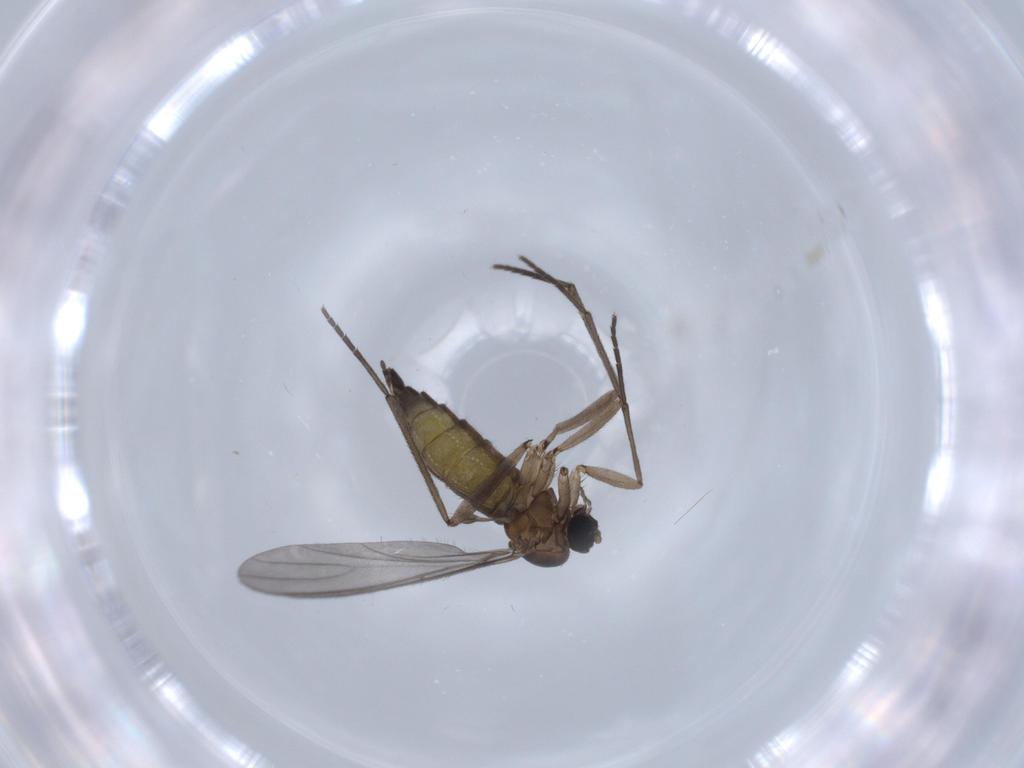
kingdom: Animalia
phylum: Arthropoda
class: Insecta
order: Diptera
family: Sciaridae
